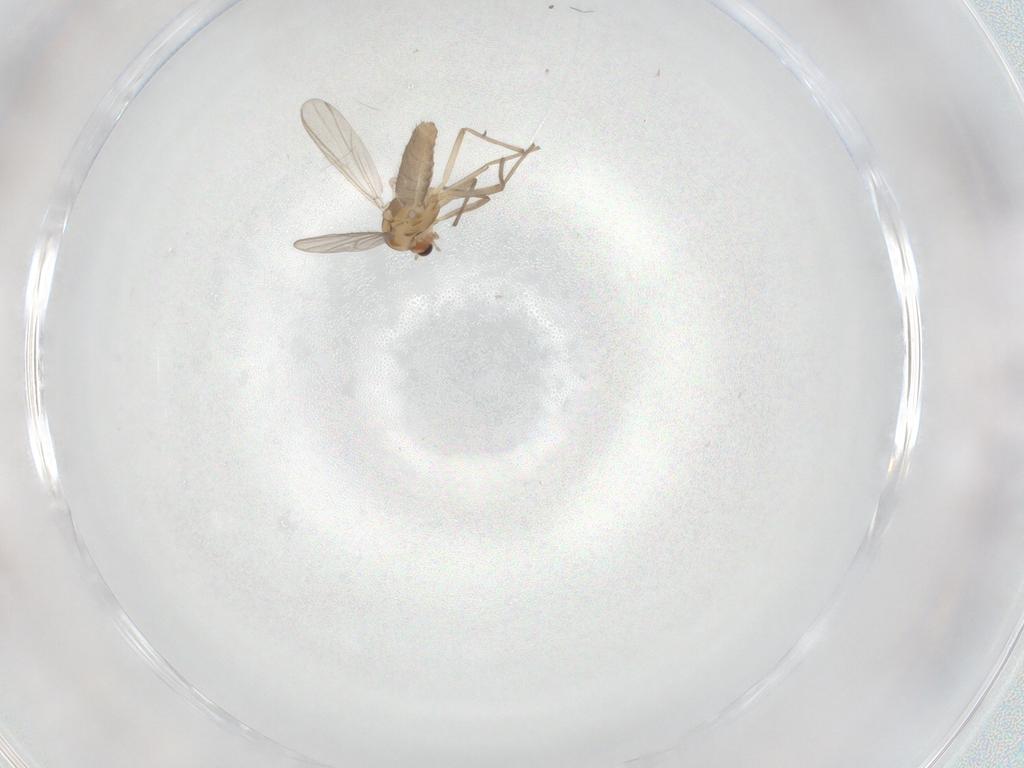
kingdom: Animalia
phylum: Arthropoda
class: Insecta
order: Diptera
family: Chironomidae
